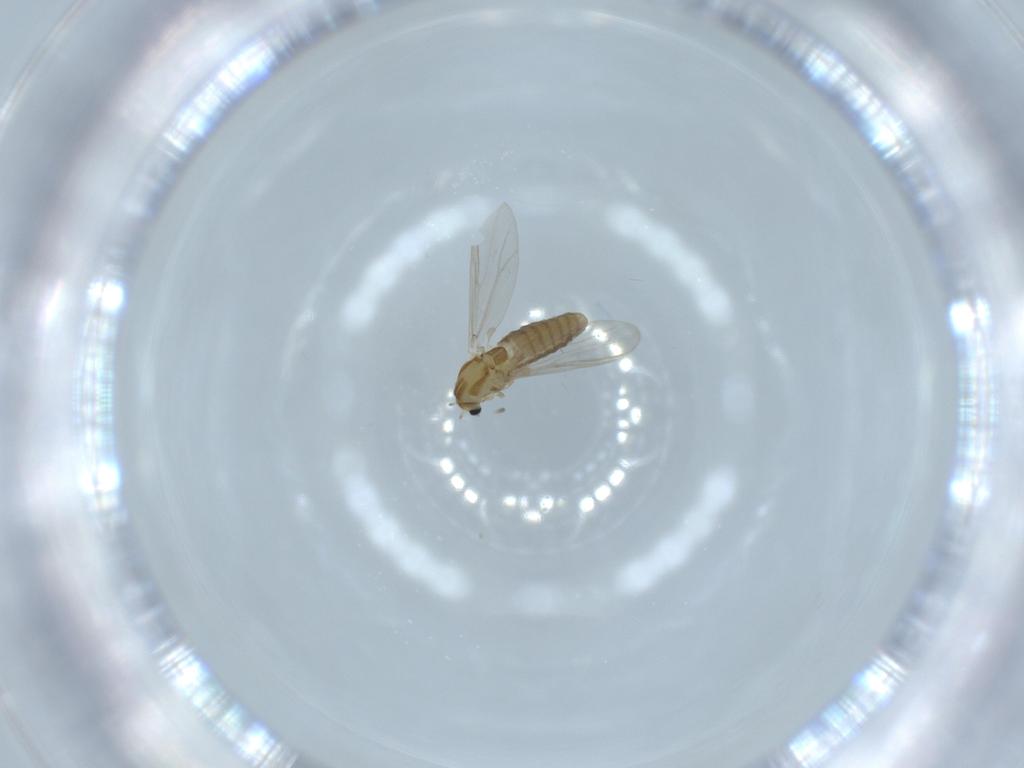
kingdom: Animalia
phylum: Arthropoda
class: Insecta
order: Diptera
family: Chironomidae
